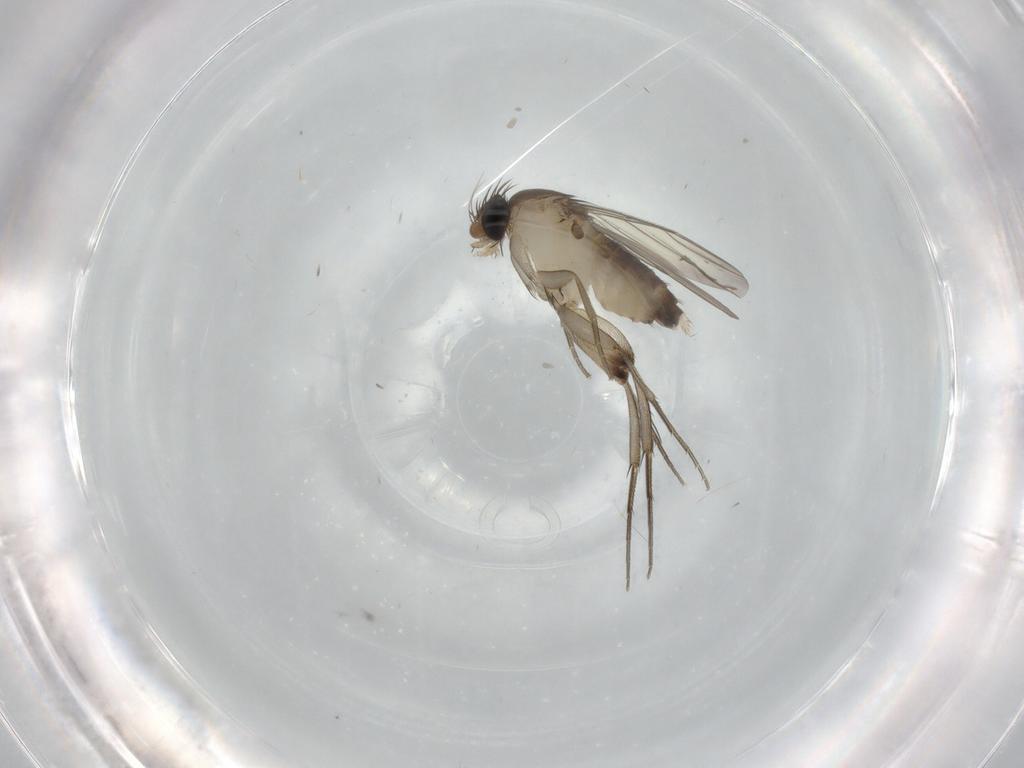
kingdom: Animalia
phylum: Arthropoda
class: Insecta
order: Diptera
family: Phoridae
